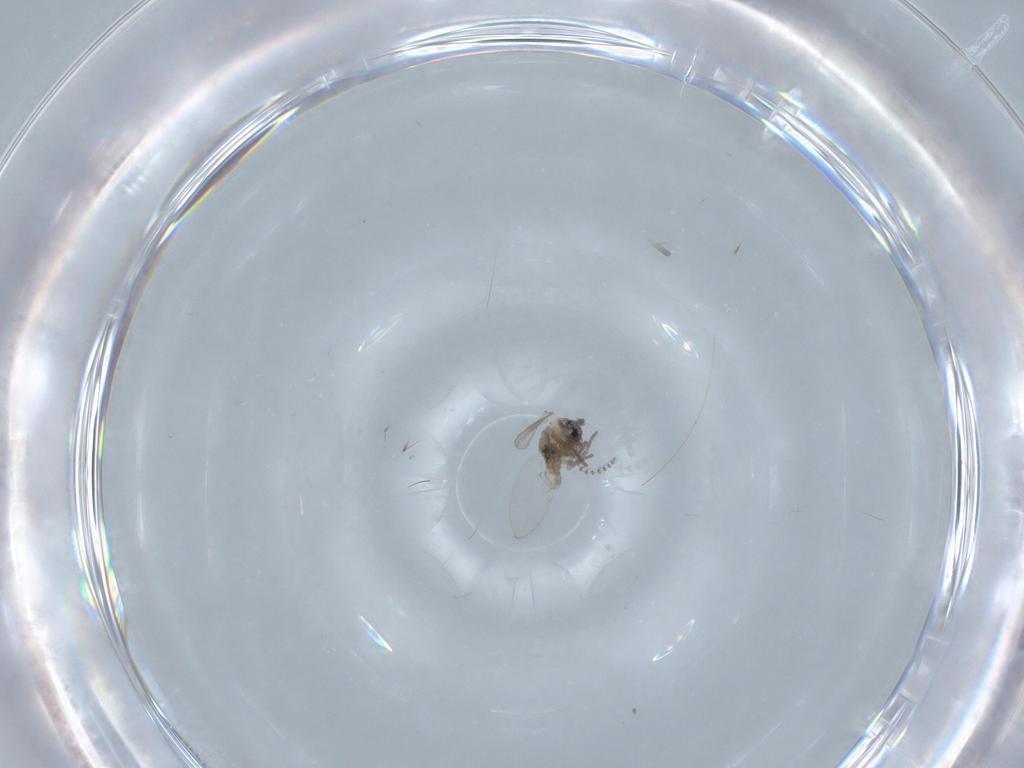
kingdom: Animalia
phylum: Arthropoda
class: Insecta
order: Diptera
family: Psychodidae
